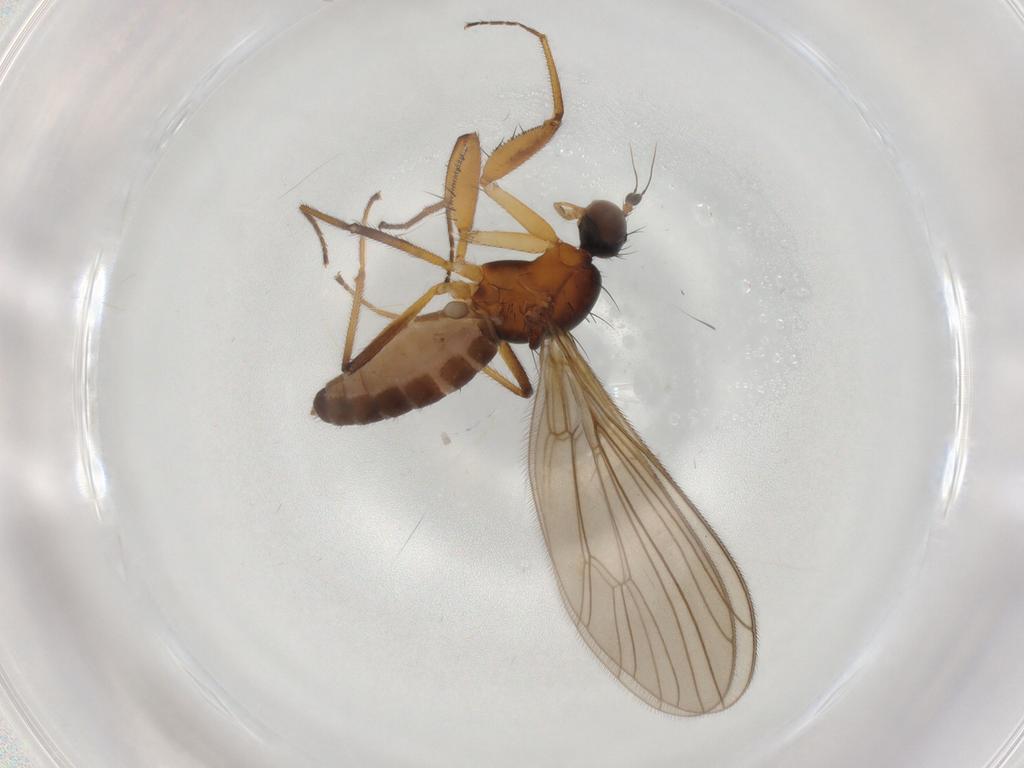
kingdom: Animalia
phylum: Arthropoda
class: Insecta
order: Diptera
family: Empididae
